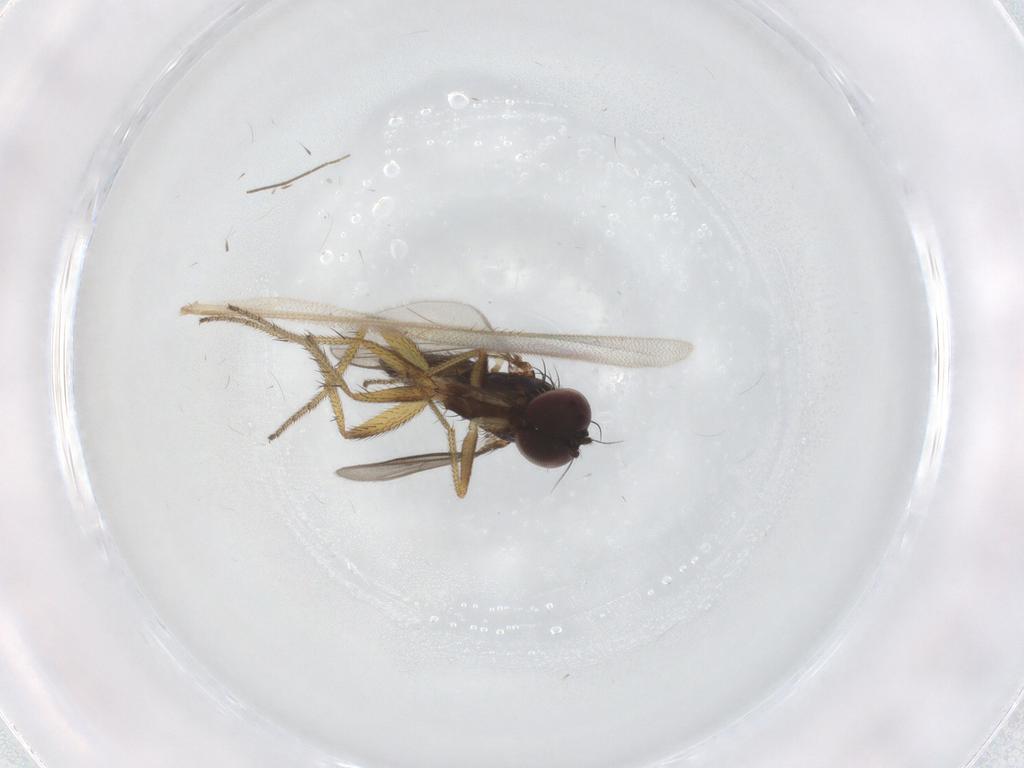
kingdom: Animalia
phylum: Arthropoda
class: Insecta
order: Diptera
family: Chironomidae
